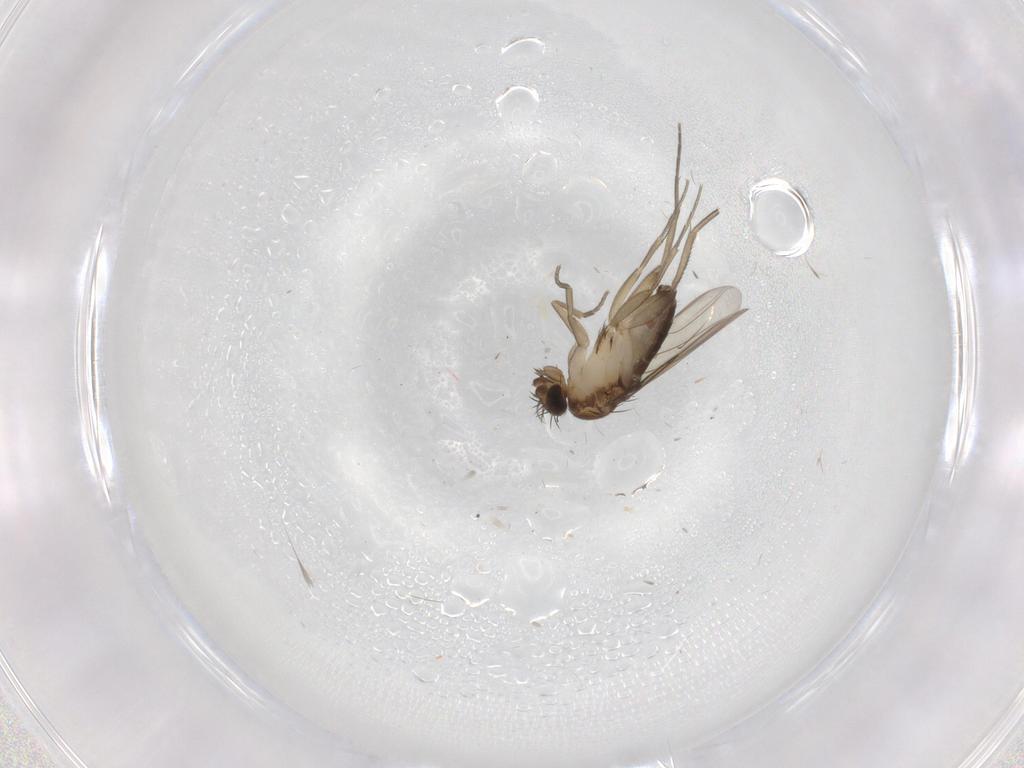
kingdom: Animalia
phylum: Arthropoda
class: Insecta
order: Diptera
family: Phoridae
